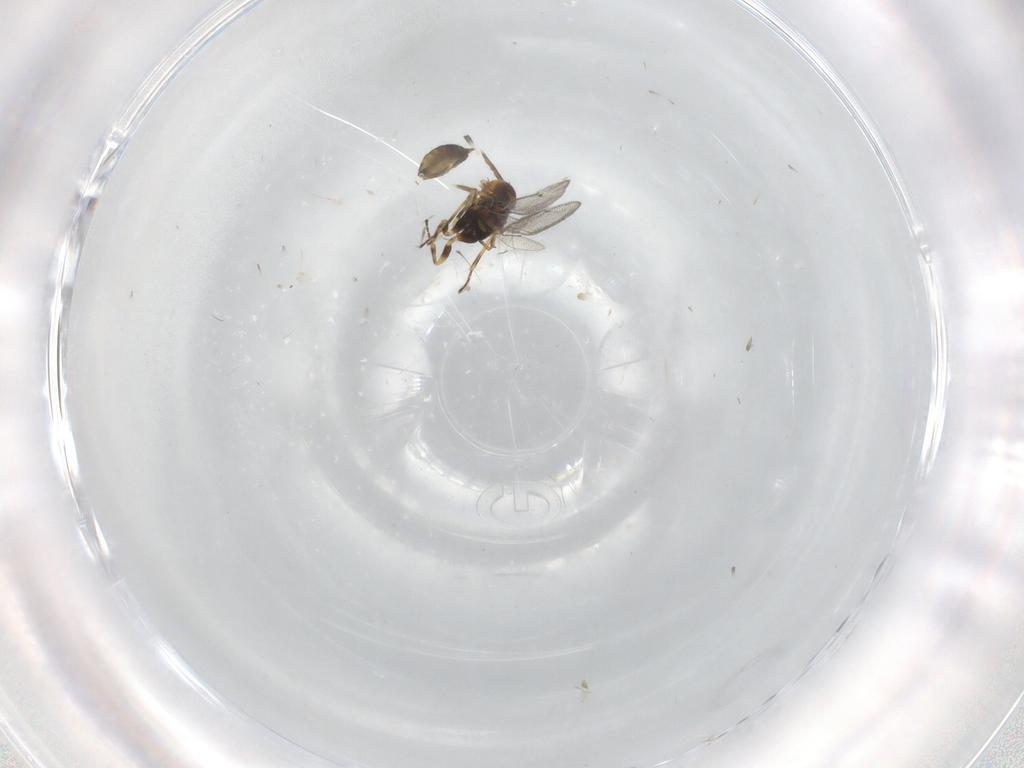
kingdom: Animalia
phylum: Arthropoda
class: Insecta
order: Hymenoptera
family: Eulophidae
